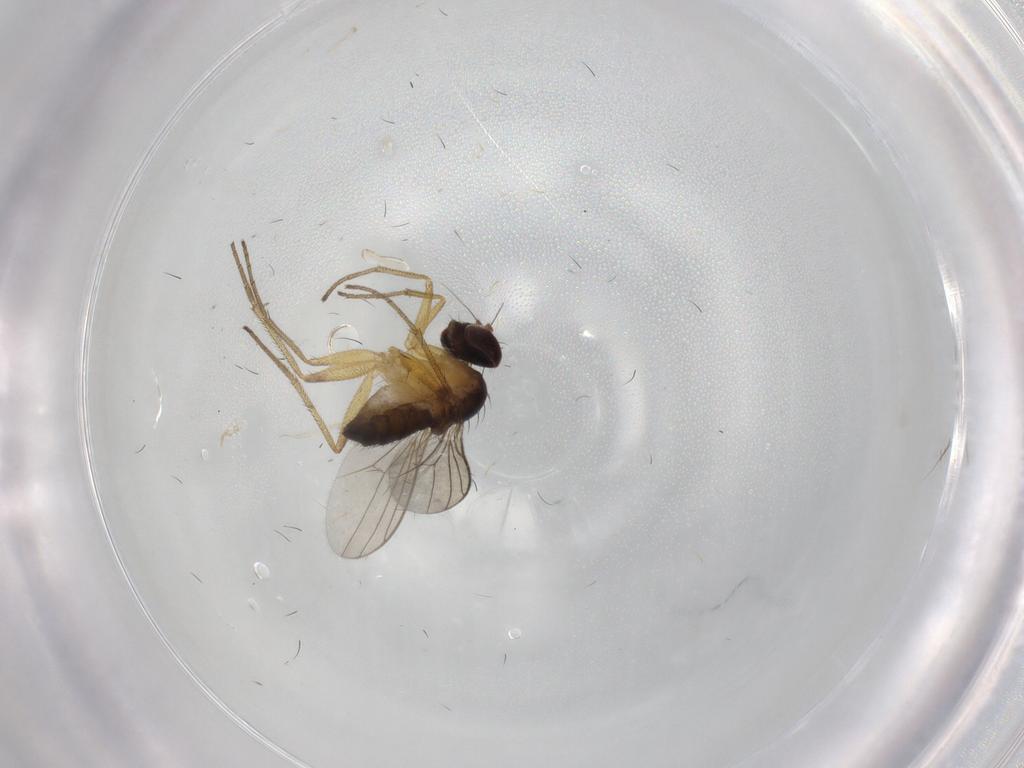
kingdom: Animalia
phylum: Arthropoda
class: Insecta
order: Diptera
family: Dolichopodidae
